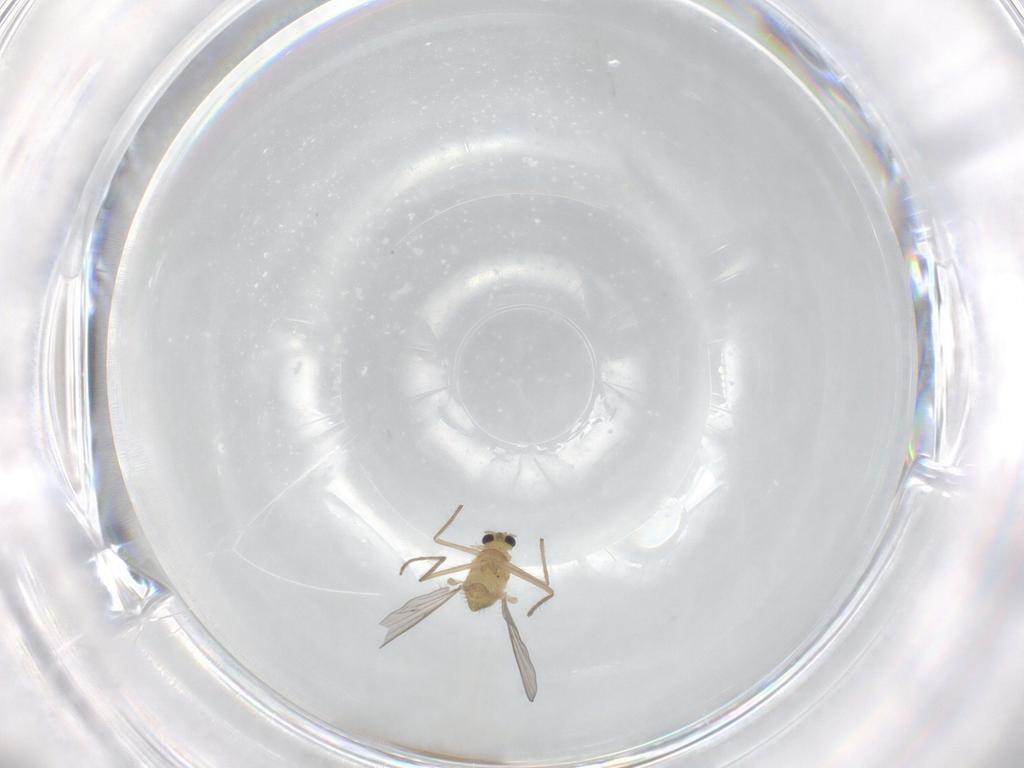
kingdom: Animalia
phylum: Arthropoda
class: Insecta
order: Diptera
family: Chironomidae
